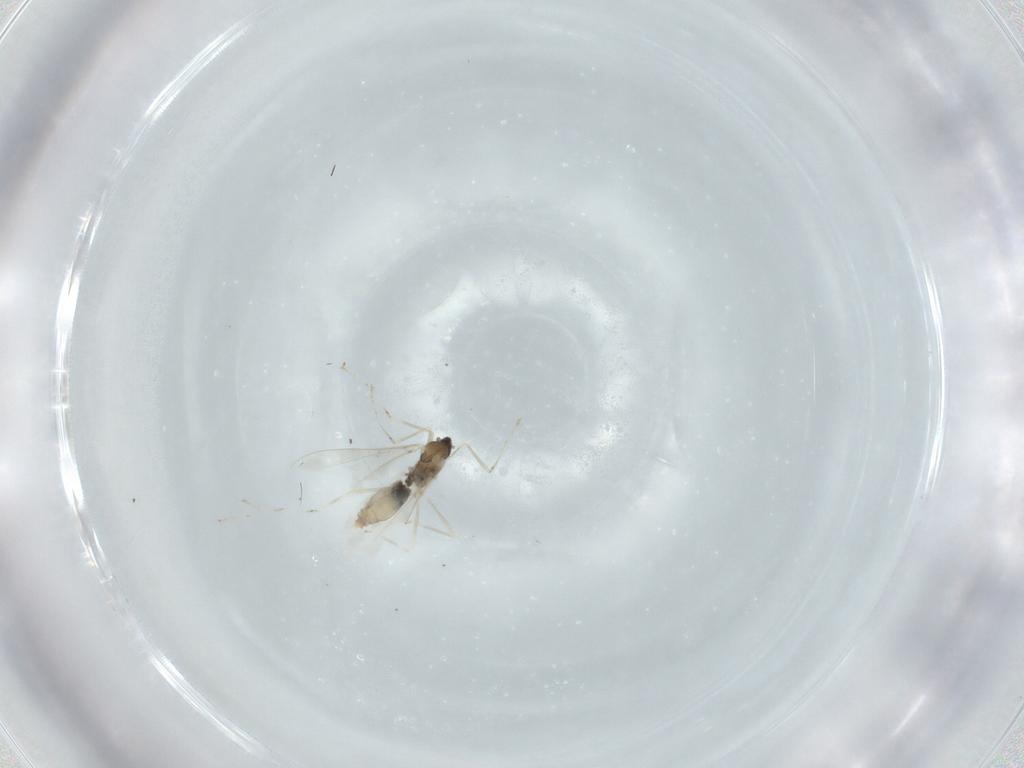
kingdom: Animalia
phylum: Arthropoda
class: Insecta
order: Diptera
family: Cecidomyiidae
